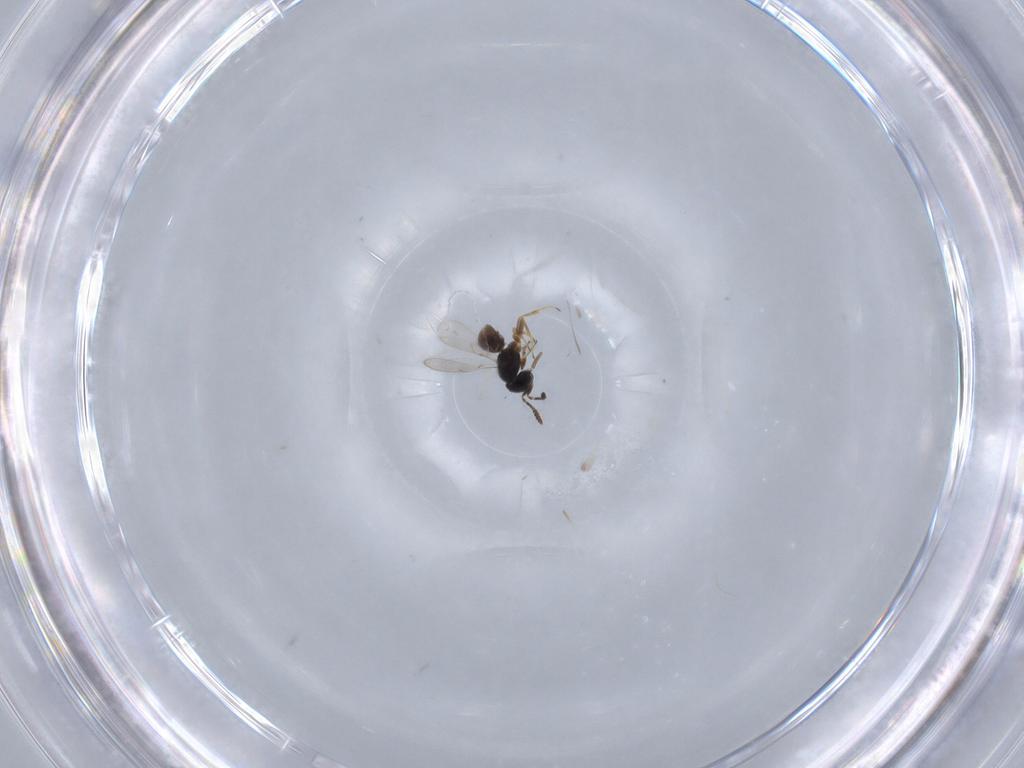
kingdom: Animalia
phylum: Arthropoda
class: Insecta
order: Hymenoptera
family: Scelionidae
